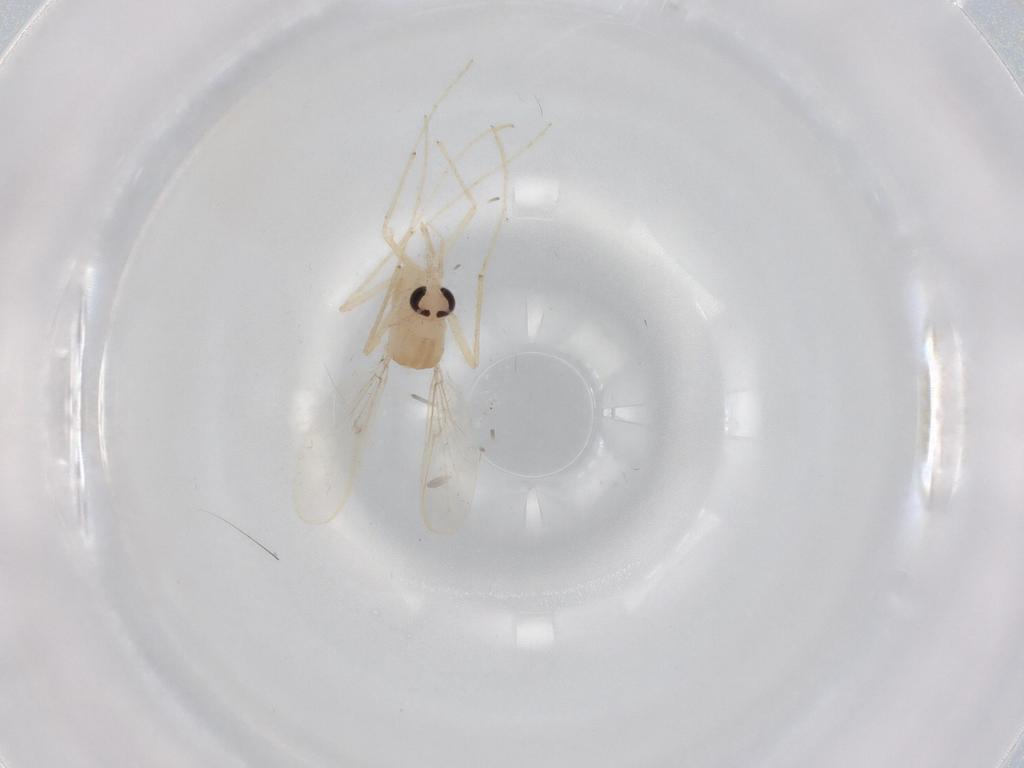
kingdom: Animalia
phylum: Arthropoda
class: Insecta
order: Diptera
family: Chironomidae
